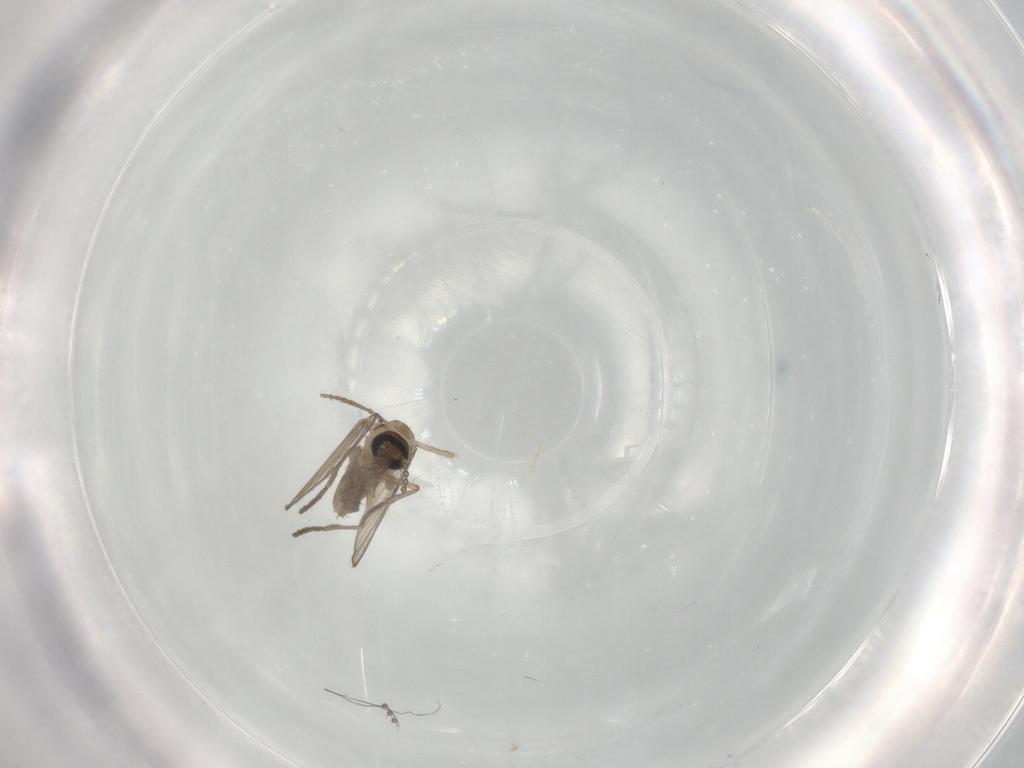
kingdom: Animalia
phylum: Arthropoda
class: Insecta
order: Diptera
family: Psychodidae
